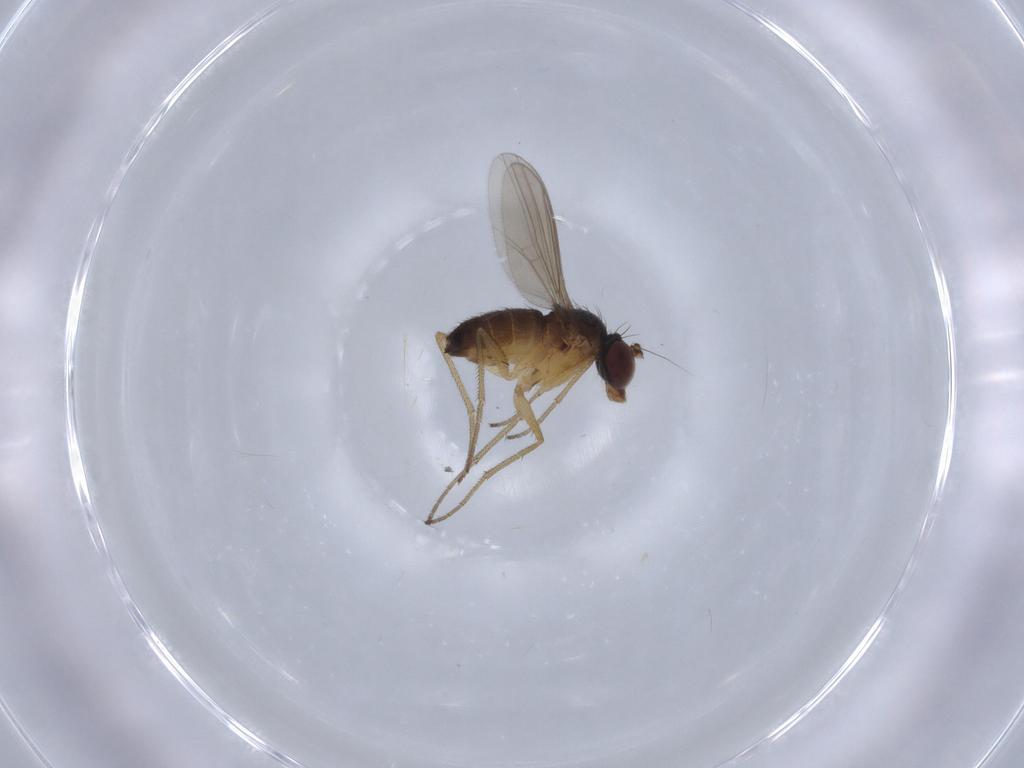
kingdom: Animalia
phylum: Arthropoda
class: Insecta
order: Diptera
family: Dolichopodidae
